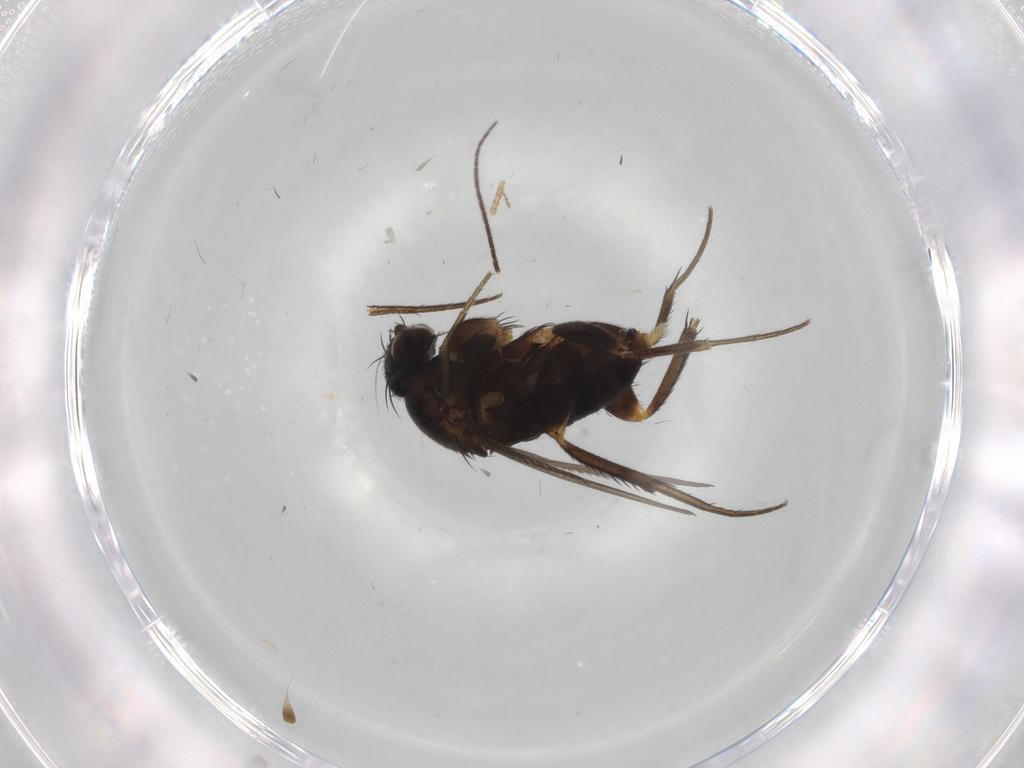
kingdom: Animalia
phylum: Arthropoda
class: Insecta
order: Diptera
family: Phoridae
